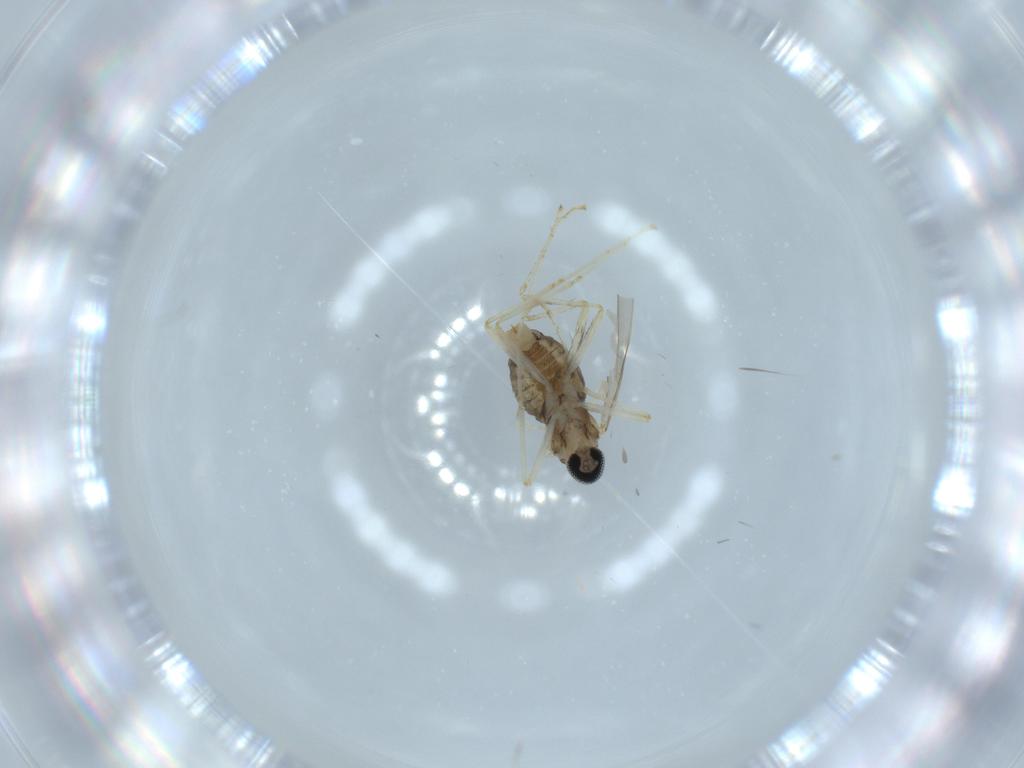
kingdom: Animalia
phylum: Arthropoda
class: Insecta
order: Diptera
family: Cecidomyiidae
